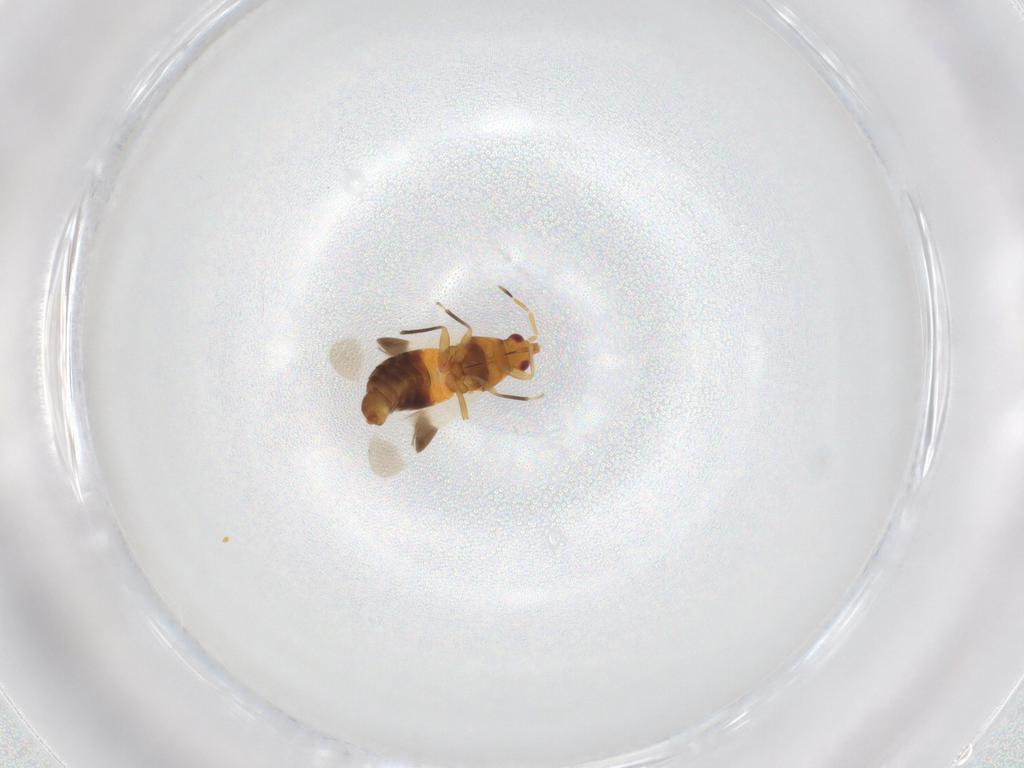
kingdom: Animalia
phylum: Arthropoda
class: Insecta
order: Hemiptera
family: Anthocoridae
